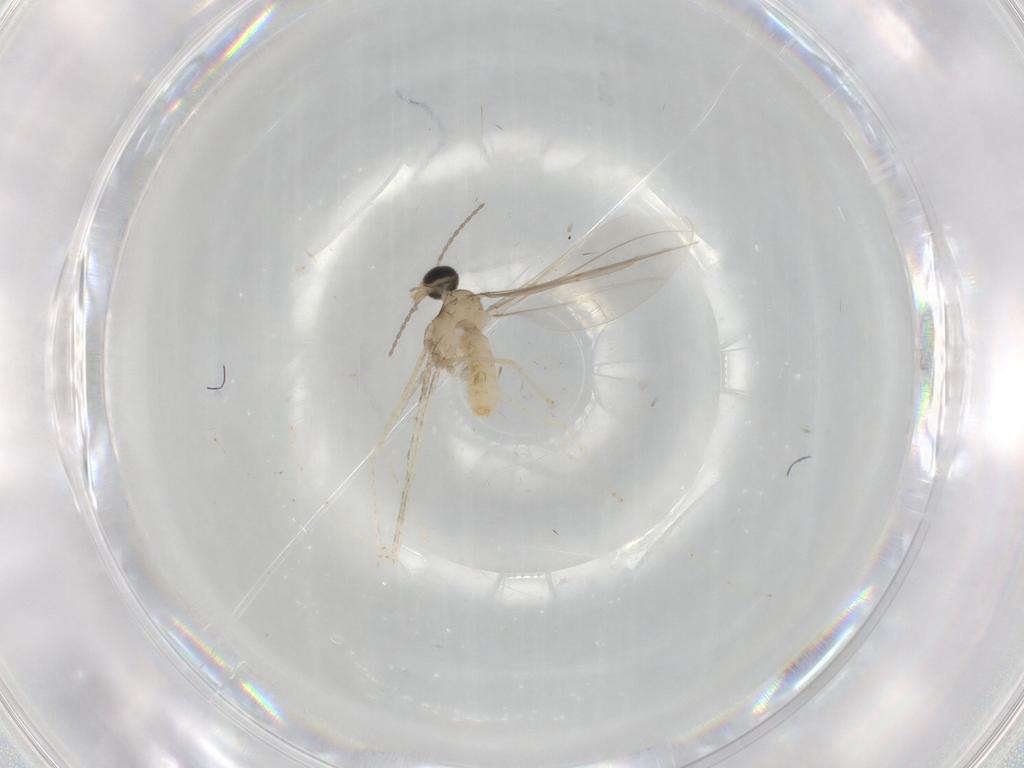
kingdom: Animalia
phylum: Arthropoda
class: Insecta
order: Diptera
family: Cecidomyiidae
